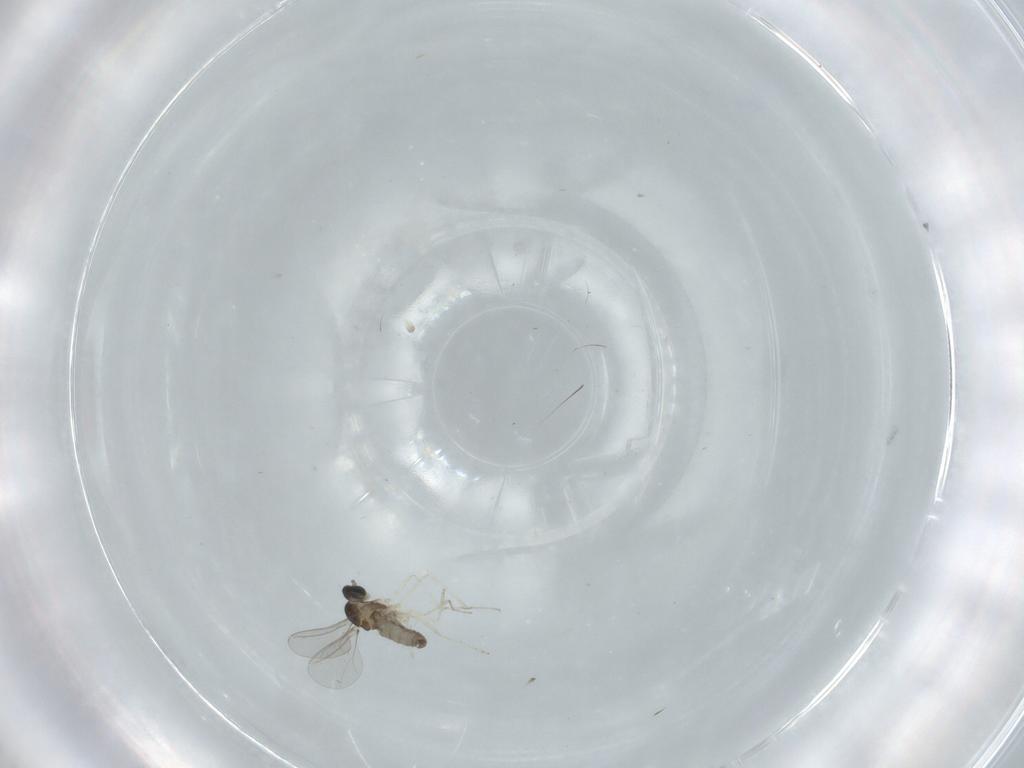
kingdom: Animalia
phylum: Arthropoda
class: Insecta
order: Diptera
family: Cecidomyiidae
